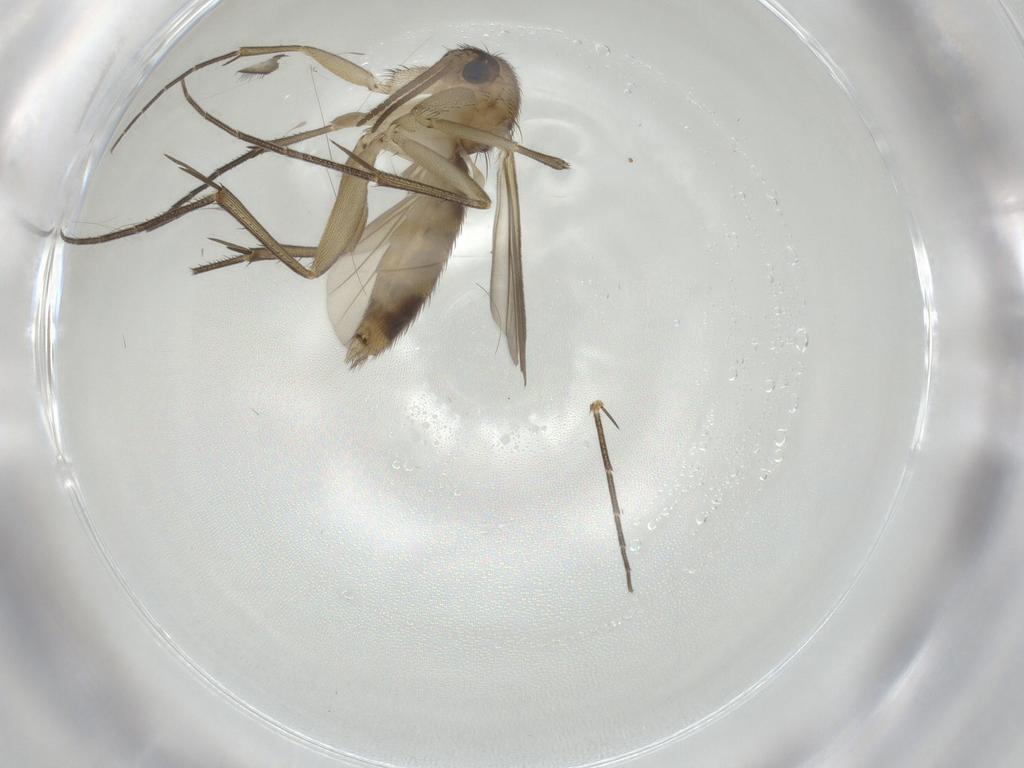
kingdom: Animalia
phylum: Arthropoda
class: Insecta
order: Diptera
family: Mycetophilidae
